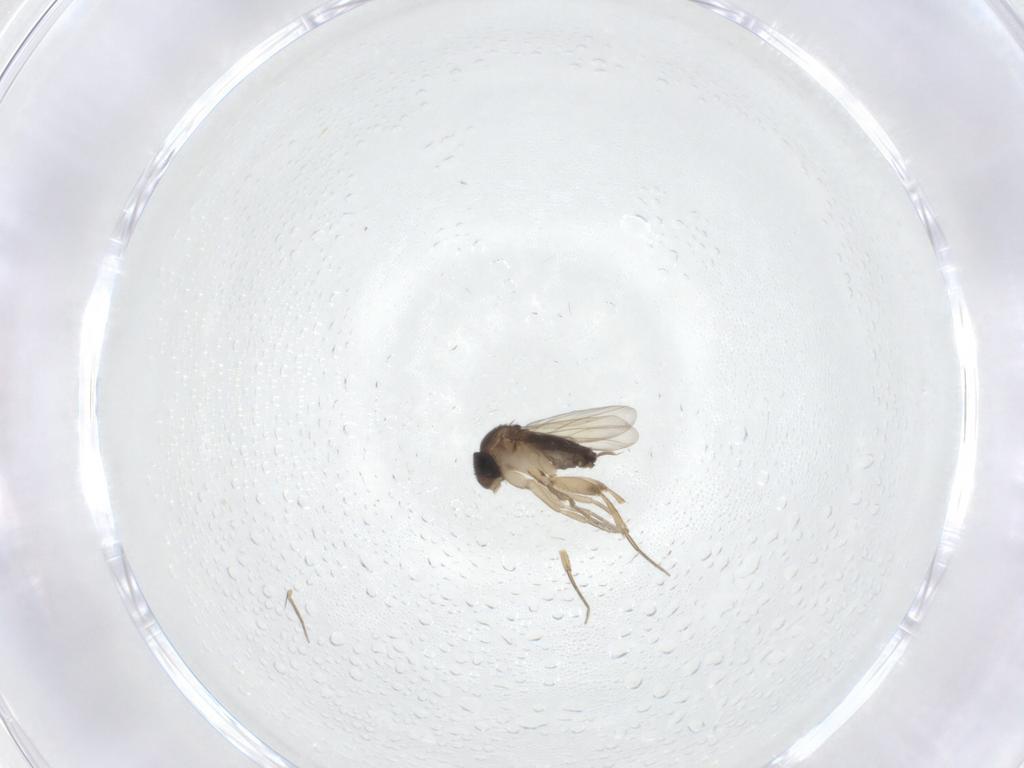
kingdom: Animalia
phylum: Arthropoda
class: Insecta
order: Diptera
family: Phoridae
